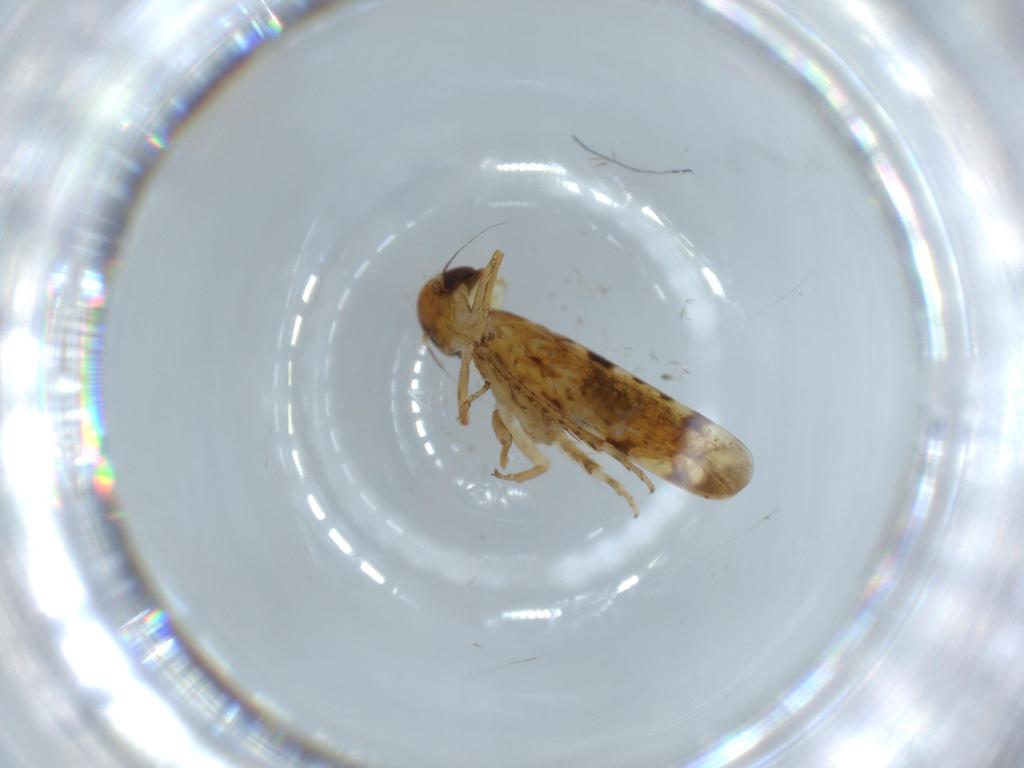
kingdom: Animalia
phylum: Arthropoda
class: Insecta
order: Hemiptera
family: Cicadellidae
